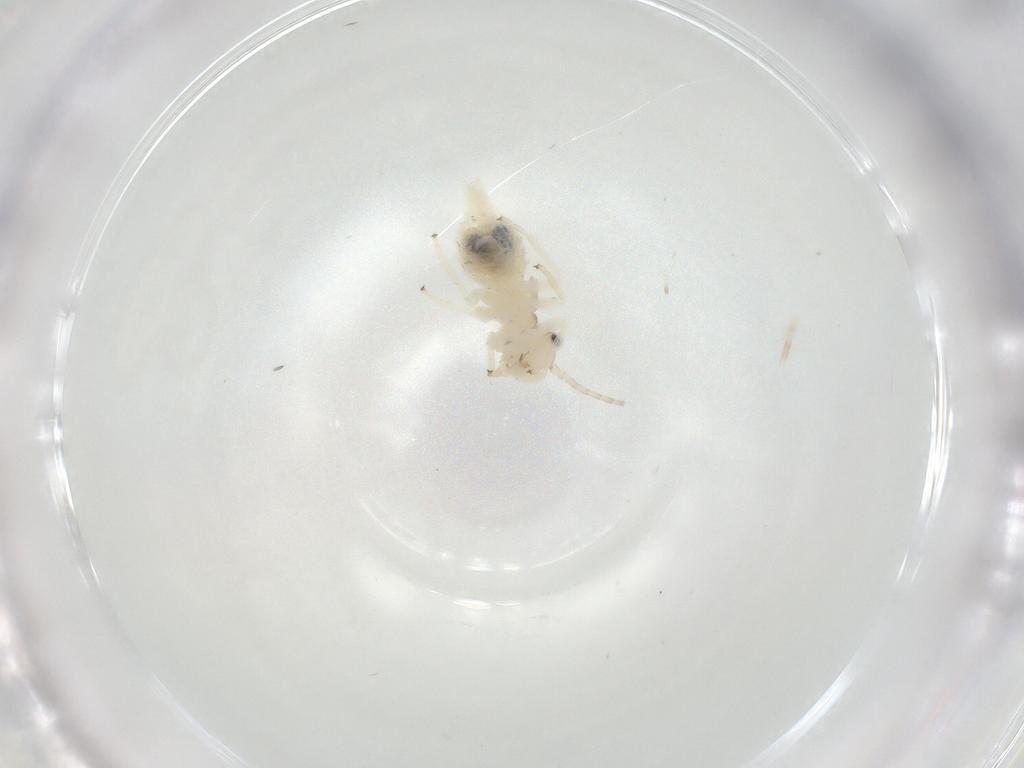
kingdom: Animalia
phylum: Arthropoda
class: Insecta
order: Psocodea
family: Amphipsocidae
